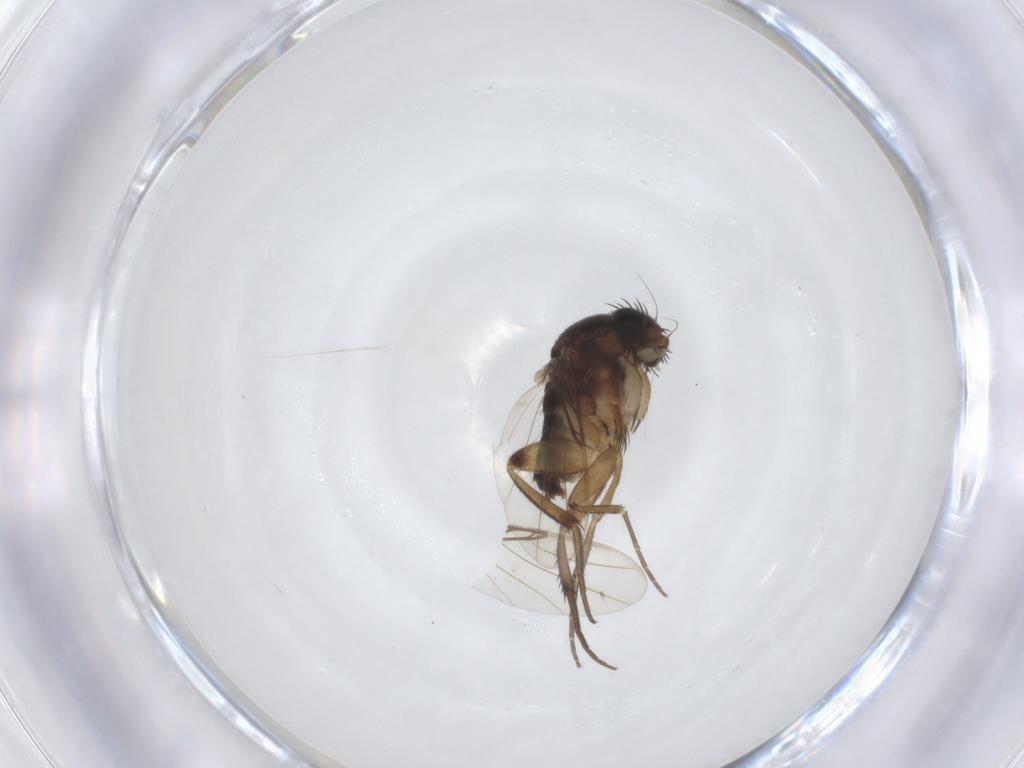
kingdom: Animalia
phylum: Arthropoda
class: Insecta
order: Diptera
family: Phoridae
